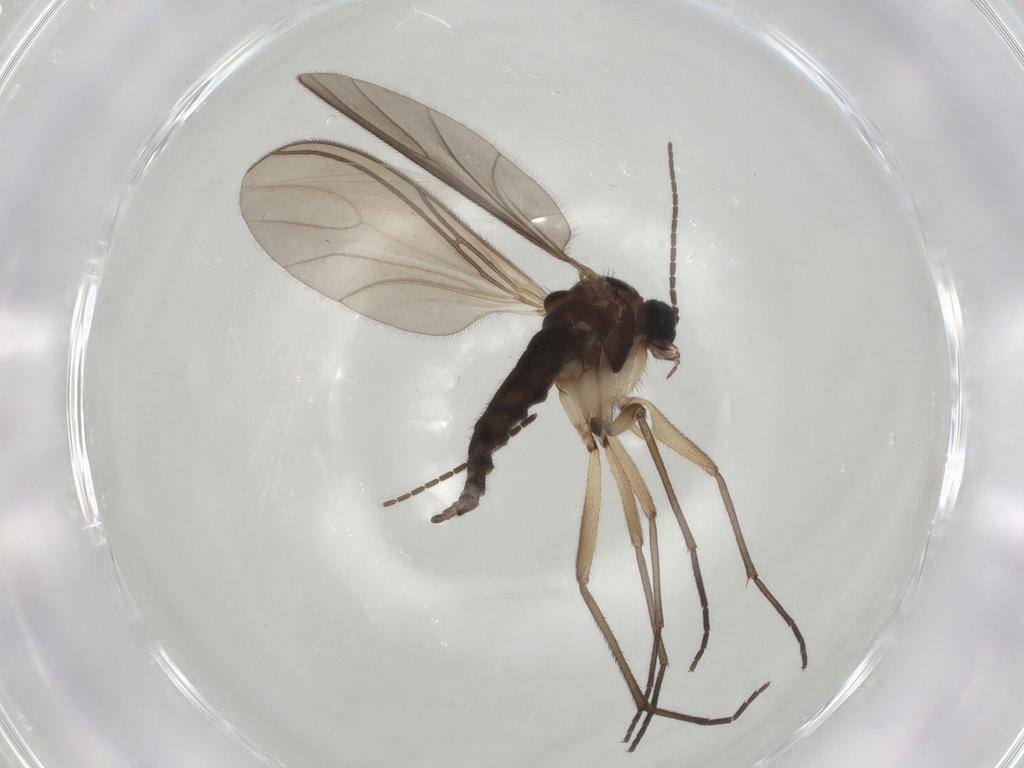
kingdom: Animalia
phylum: Arthropoda
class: Insecta
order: Diptera
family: Sciaridae
